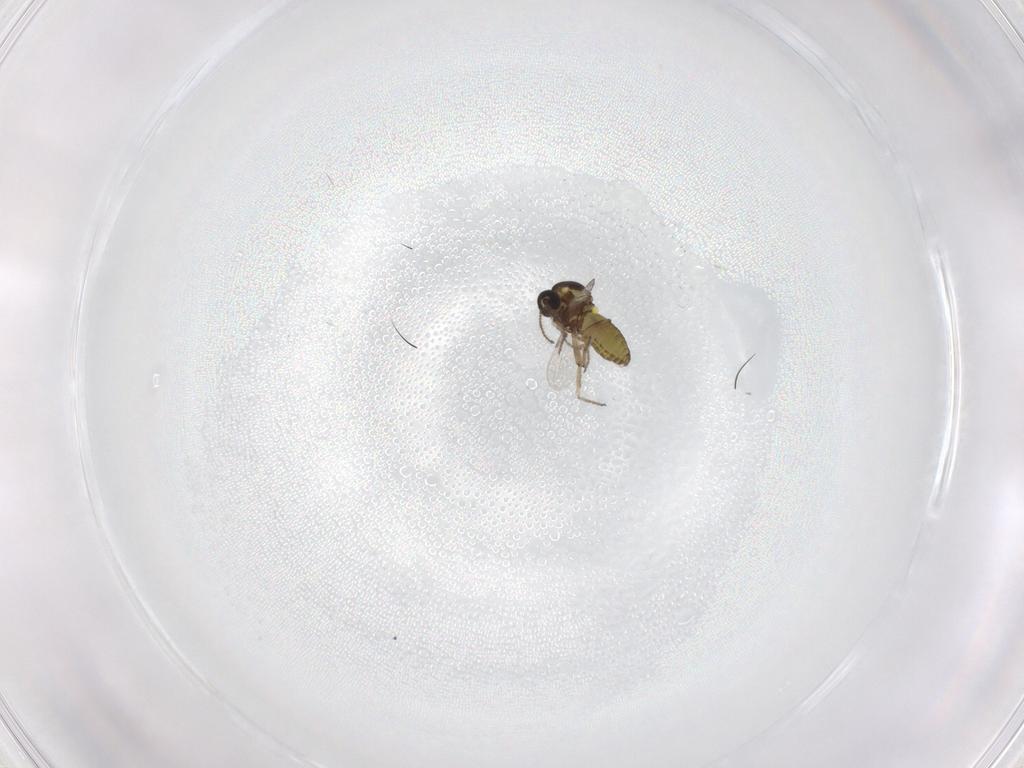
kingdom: Animalia
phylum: Arthropoda
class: Insecta
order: Diptera
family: Ceratopogonidae
